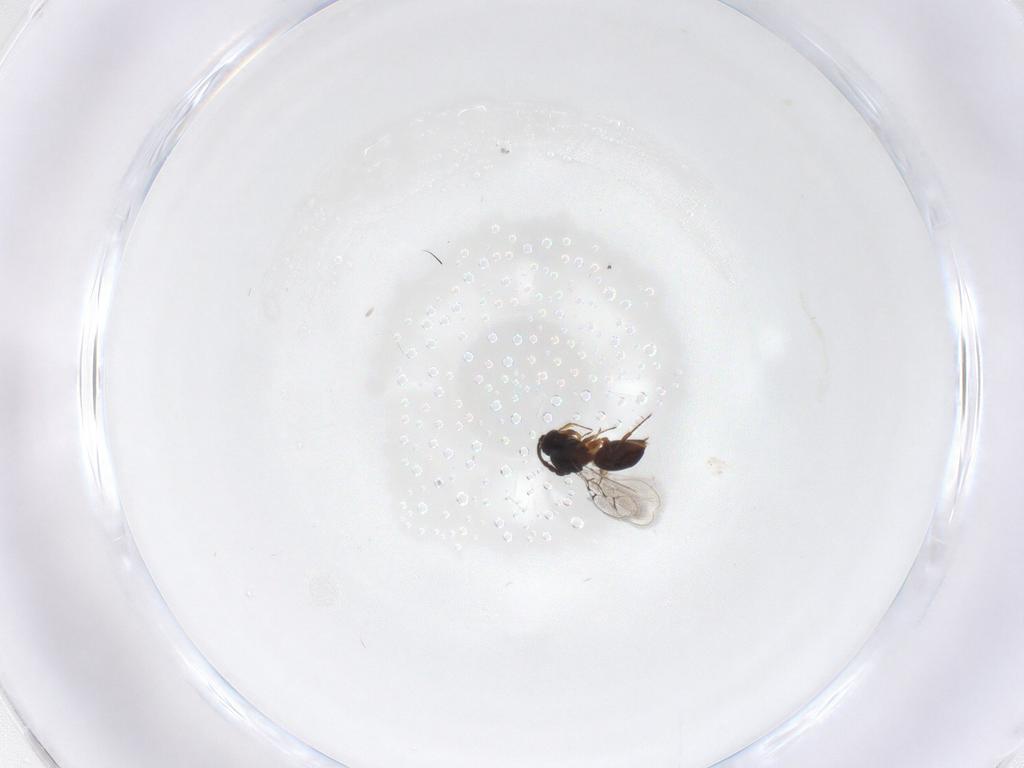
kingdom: Animalia
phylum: Arthropoda
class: Insecta
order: Hymenoptera
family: Figitidae
